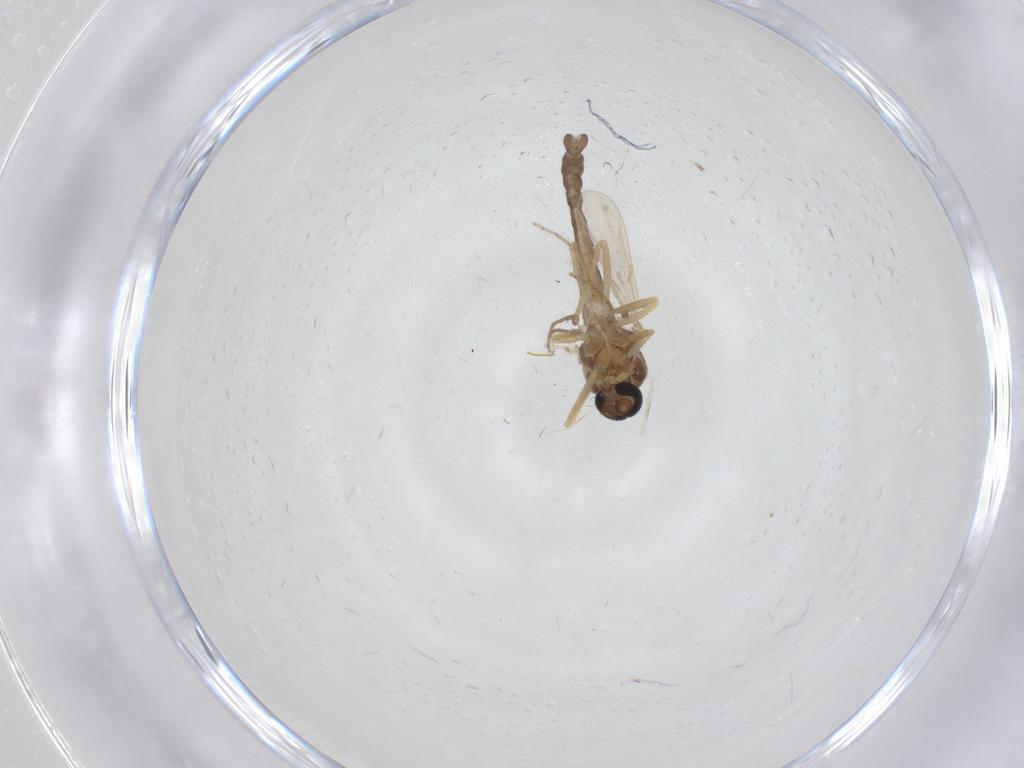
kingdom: Animalia
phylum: Arthropoda
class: Insecta
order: Diptera
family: Ceratopogonidae
